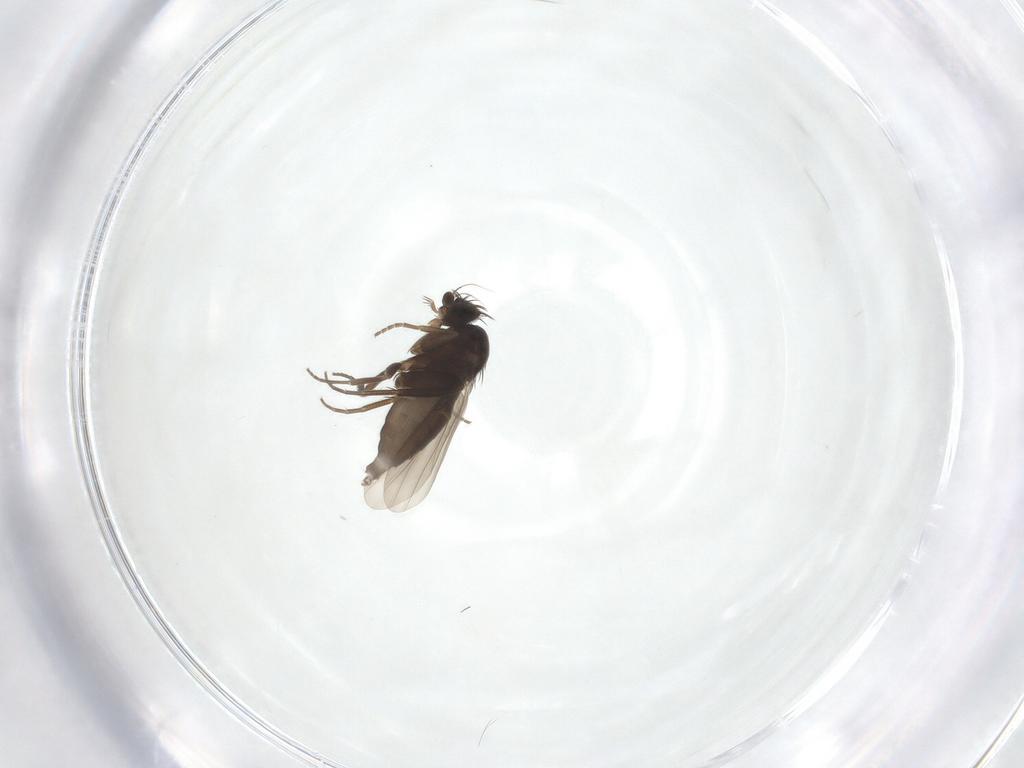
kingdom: Animalia
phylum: Arthropoda
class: Insecta
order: Diptera
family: Phoridae
